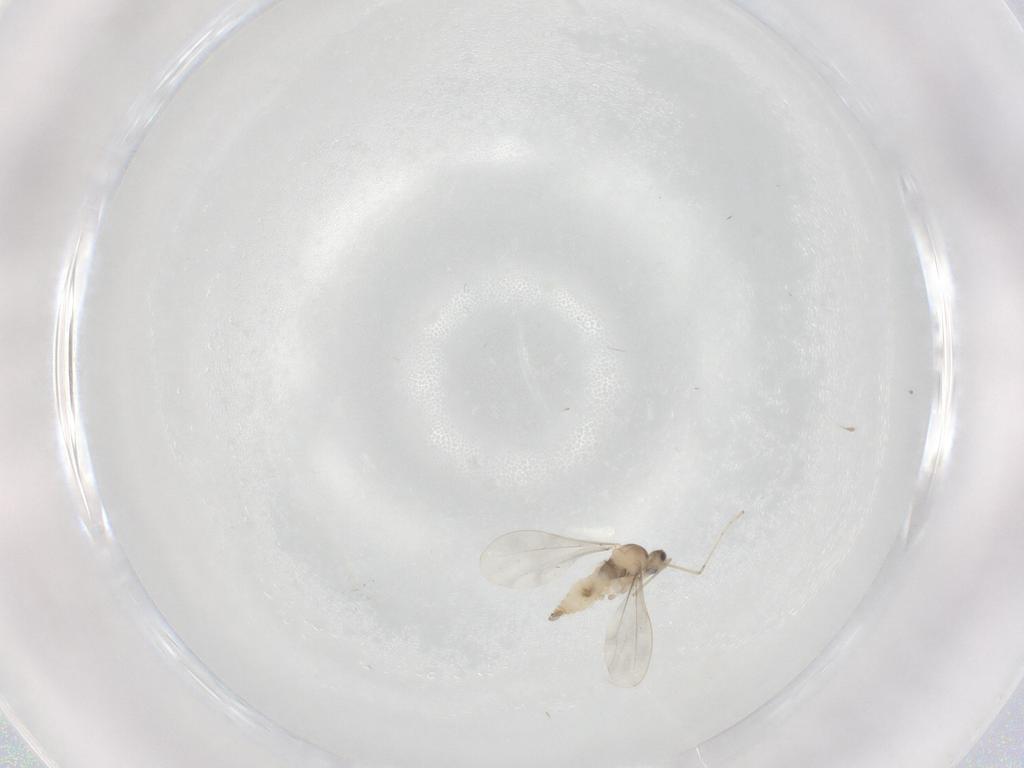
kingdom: Animalia
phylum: Arthropoda
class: Insecta
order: Diptera
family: Cecidomyiidae
